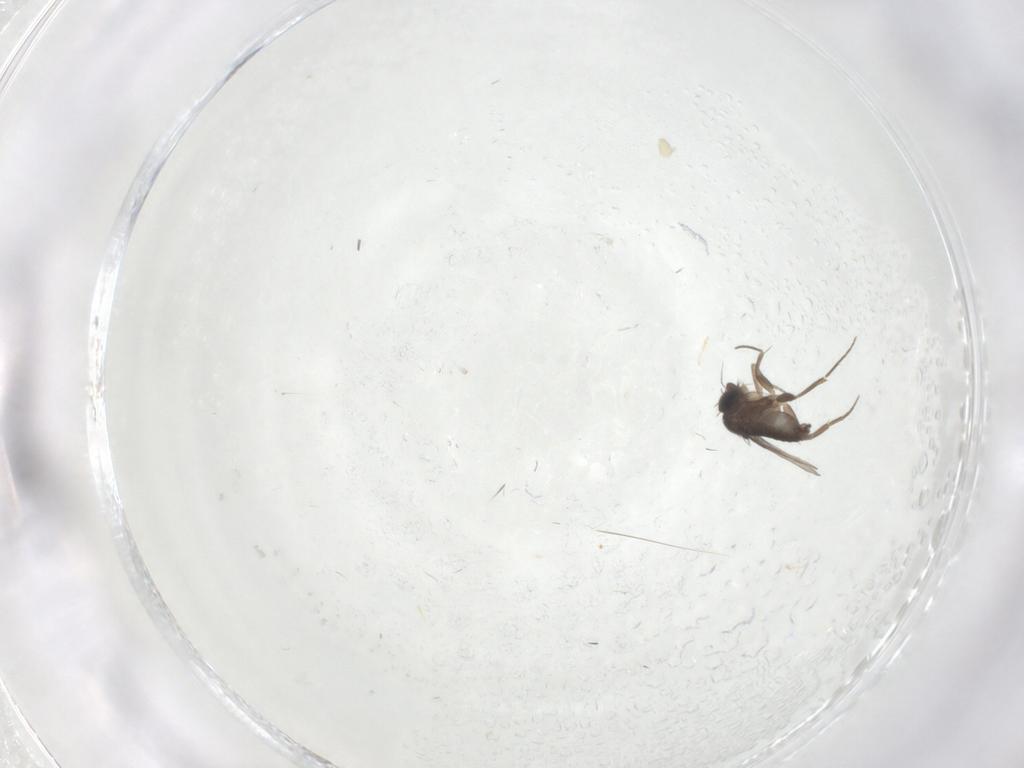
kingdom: Animalia
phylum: Arthropoda
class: Insecta
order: Diptera
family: Phoridae
